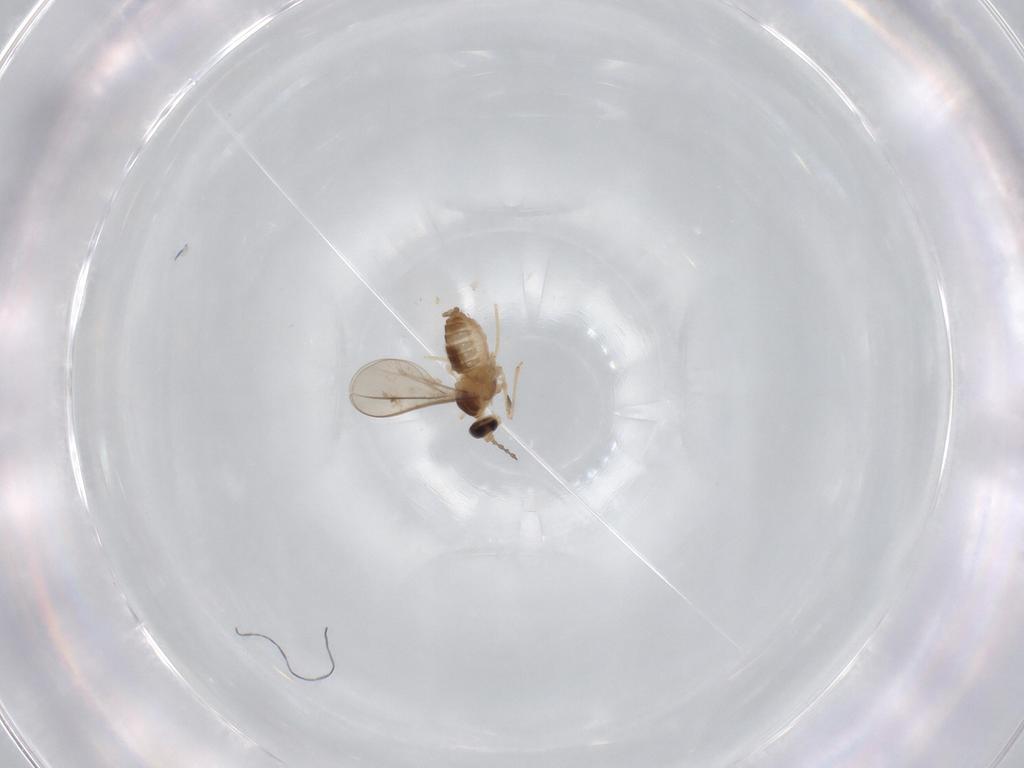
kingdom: Animalia
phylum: Arthropoda
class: Insecta
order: Diptera
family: Cecidomyiidae
